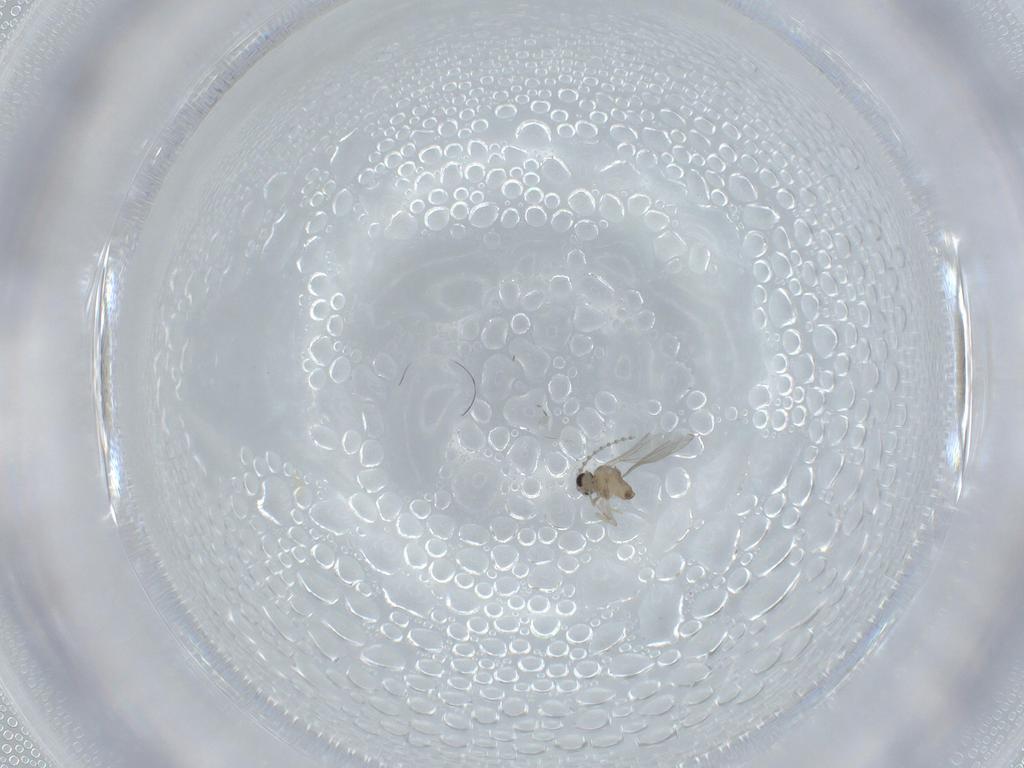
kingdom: Animalia
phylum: Arthropoda
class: Insecta
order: Diptera
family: Cecidomyiidae
